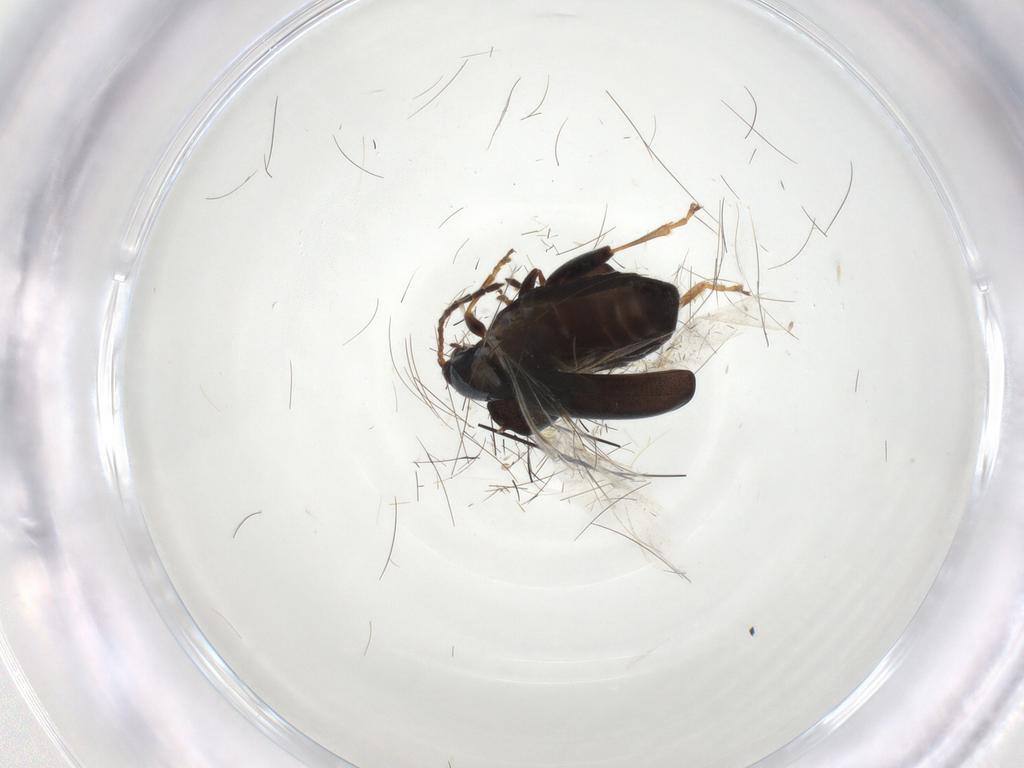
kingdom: Animalia
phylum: Arthropoda
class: Insecta
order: Coleoptera
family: Chrysomelidae
